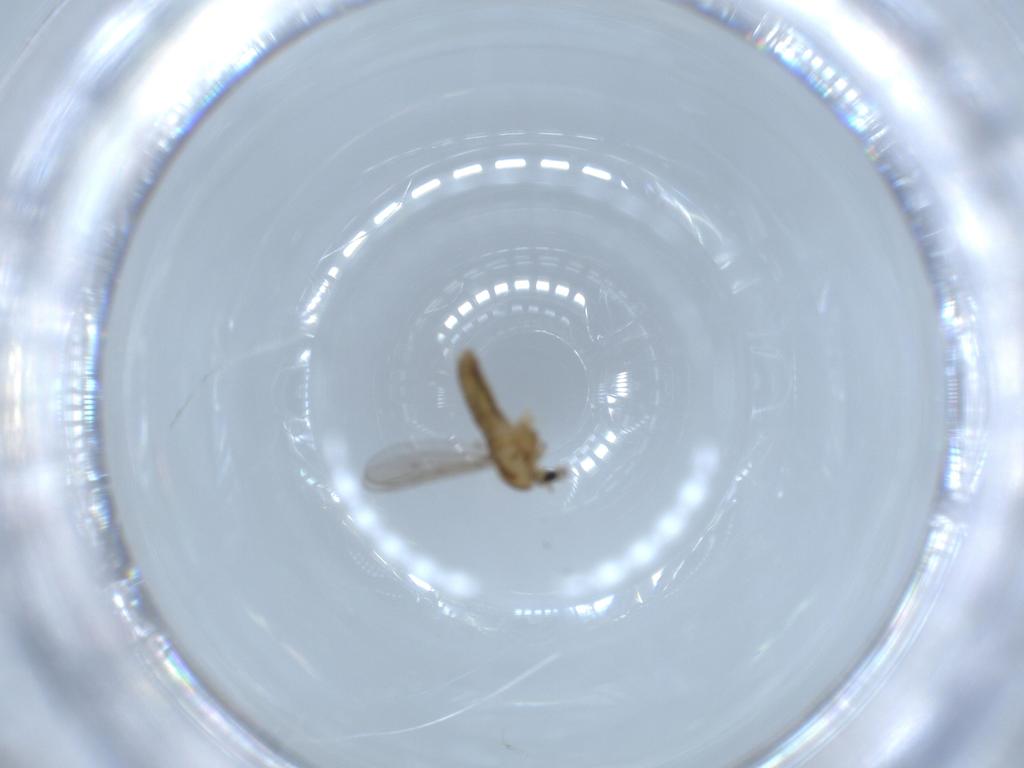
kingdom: Animalia
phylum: Arthropoda
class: Insecta
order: Diptera
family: Chironomidae
